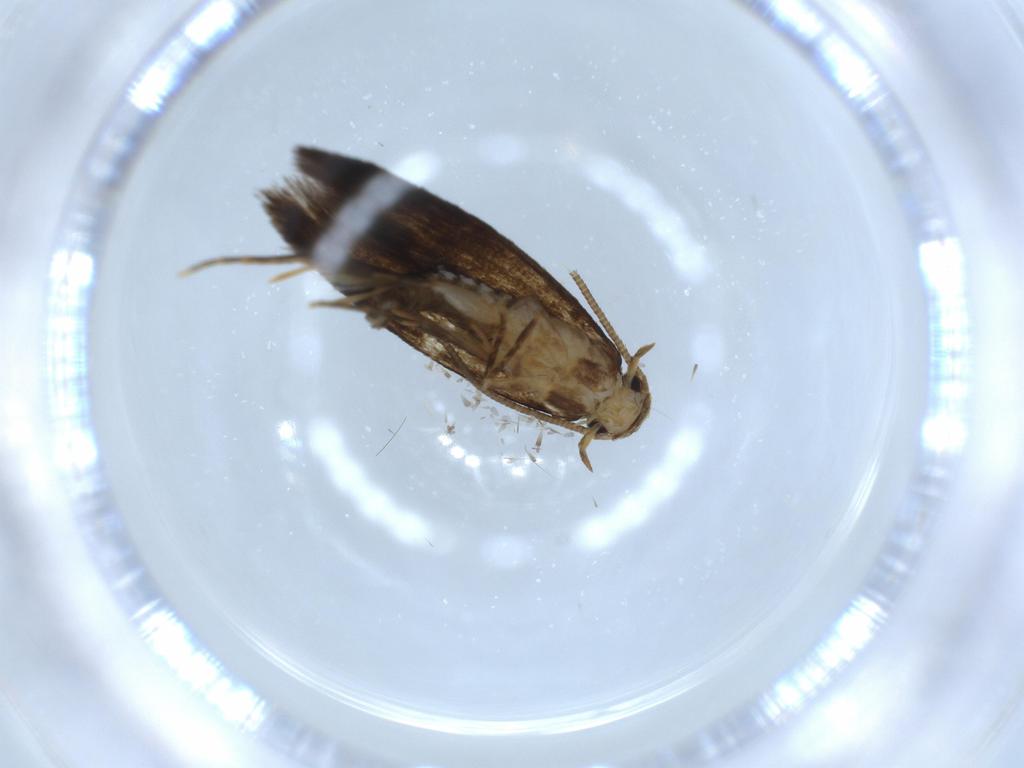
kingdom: Animalia
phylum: Arthropoda
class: Insecta
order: Lepidoptera
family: Tineidae
